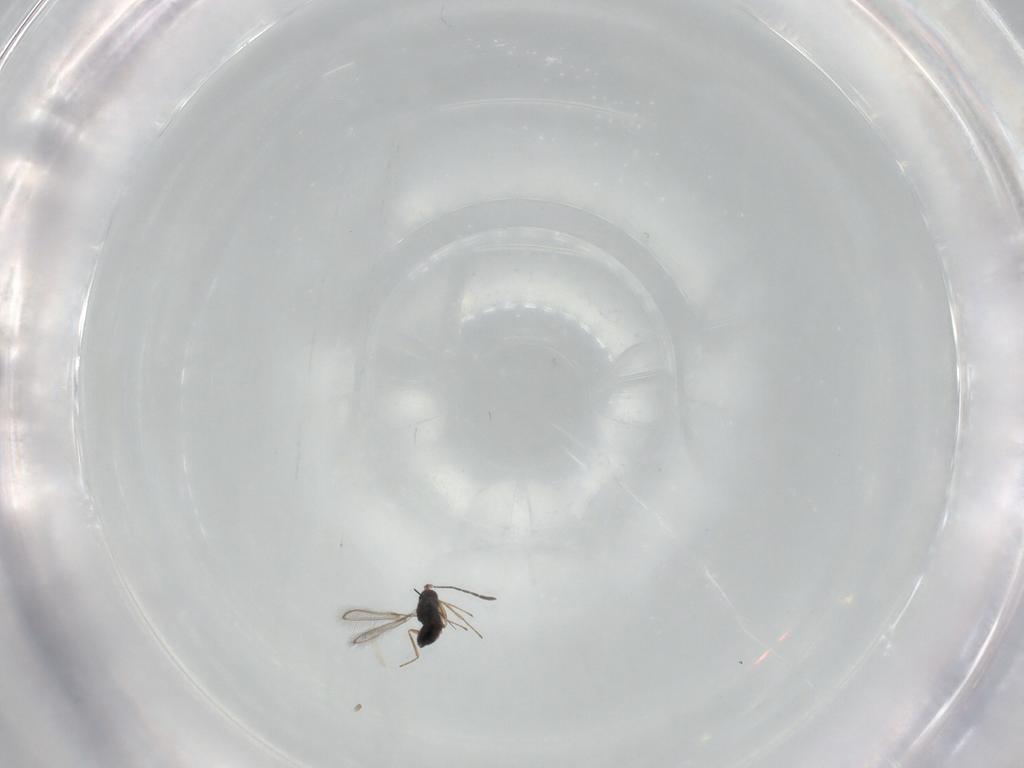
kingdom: Animalia
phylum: Arthropoda
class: Insecta
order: Hymenoptera
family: Mymaridae
